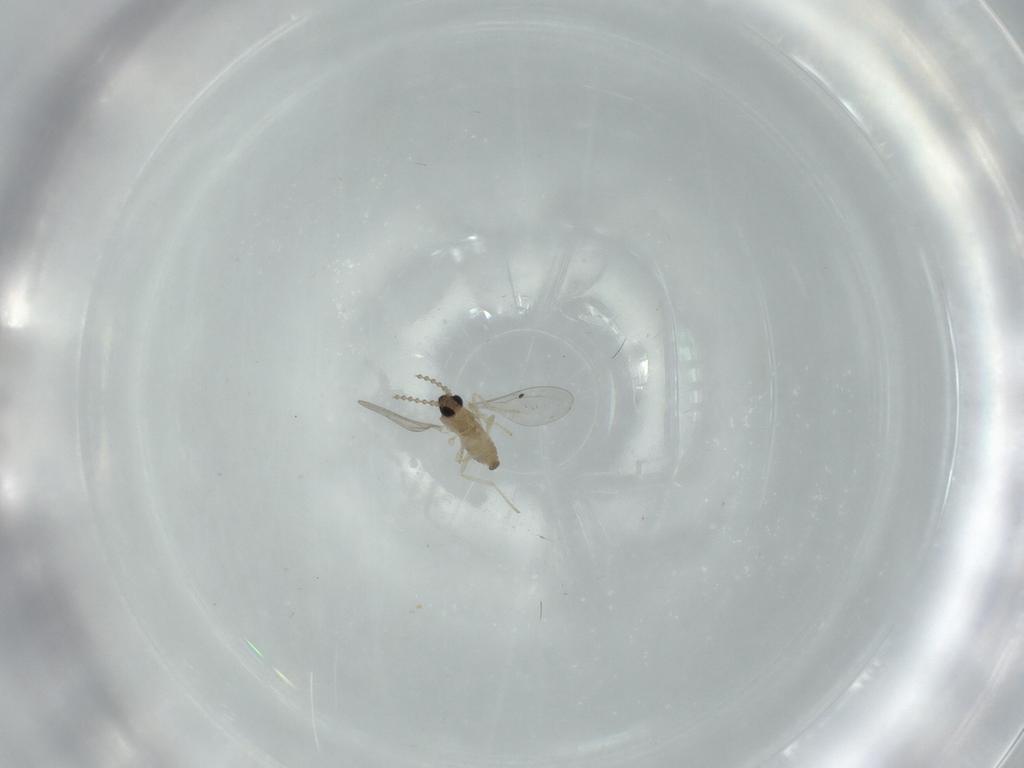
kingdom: Animalia
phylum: Arthropoda
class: Insecta
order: Diptera
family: Cecidomyiidae
